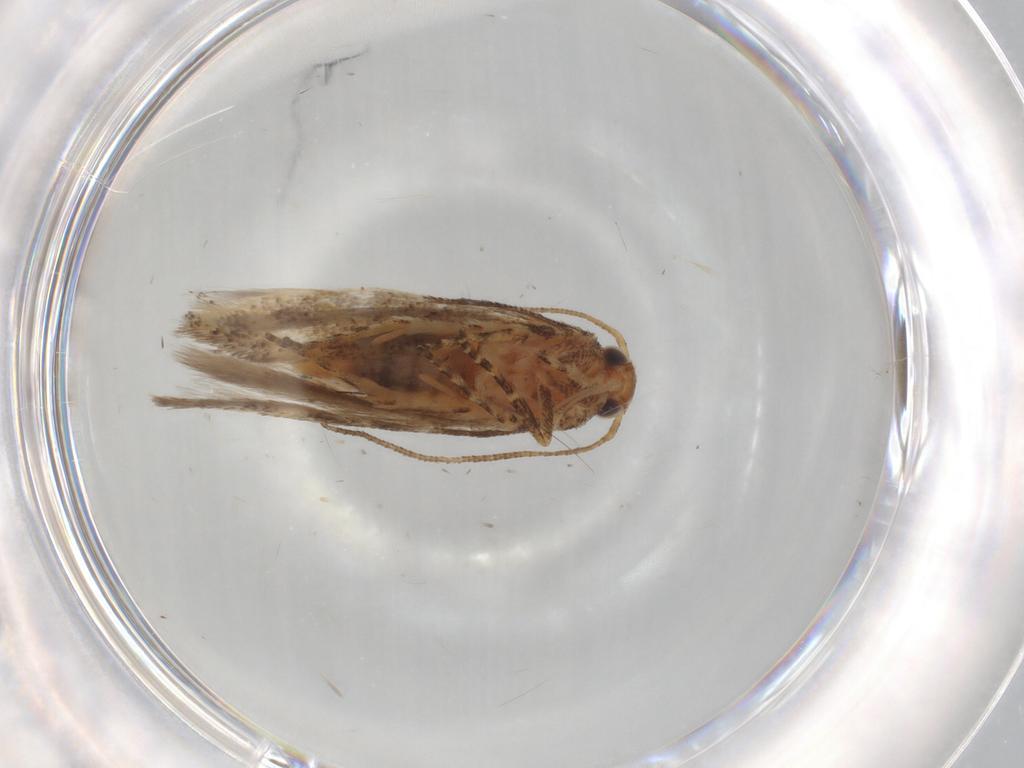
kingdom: Animalia
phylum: Arthropoda
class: Insecta
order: Lepidoptera
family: Gelechiidae
